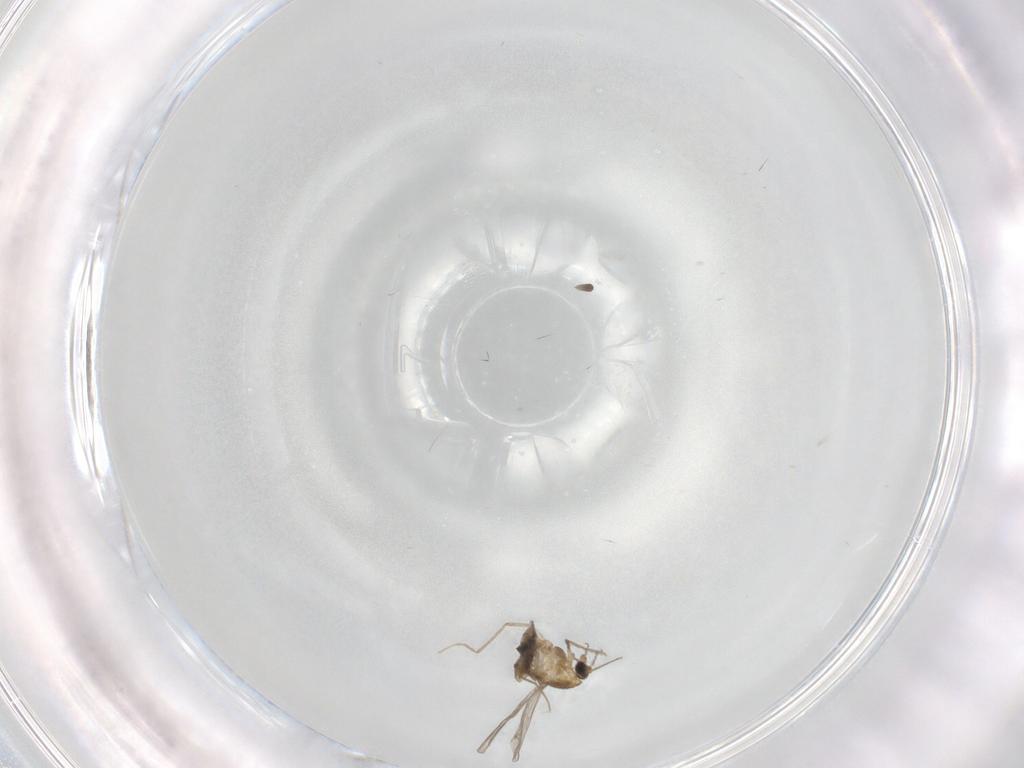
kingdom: Animalia
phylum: Arthropoda
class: Insecta
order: Diptera
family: Chironomidae
